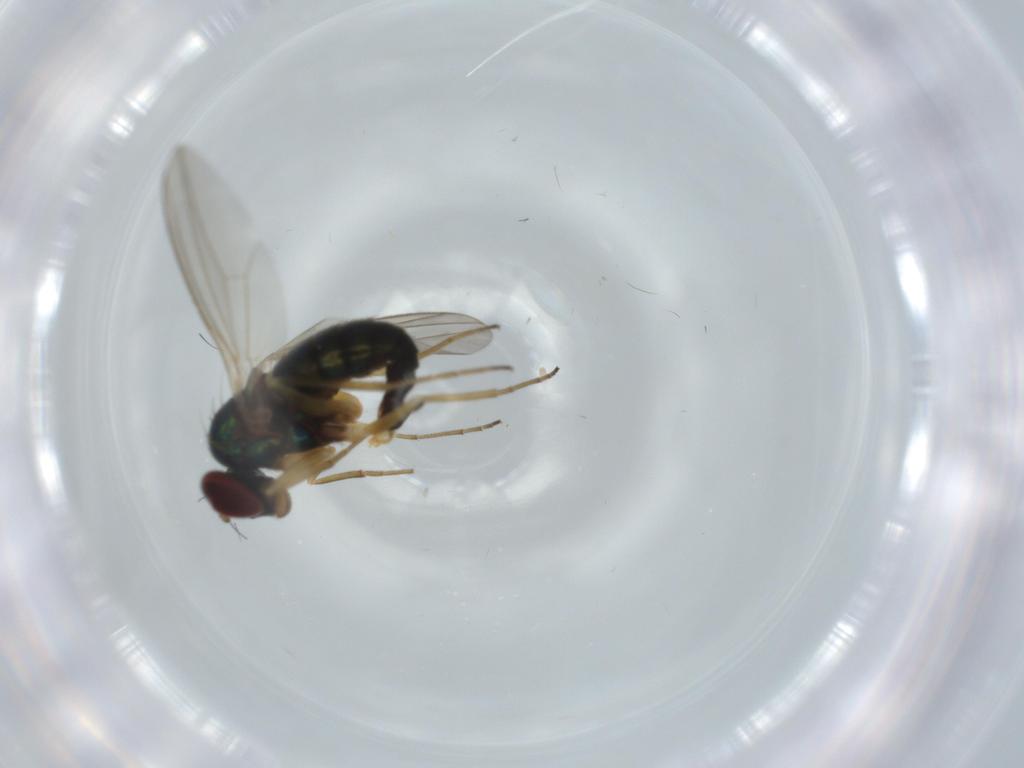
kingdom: Animalia
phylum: Arthropoda
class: Insecta
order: Diptera
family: Dolichopodidae
